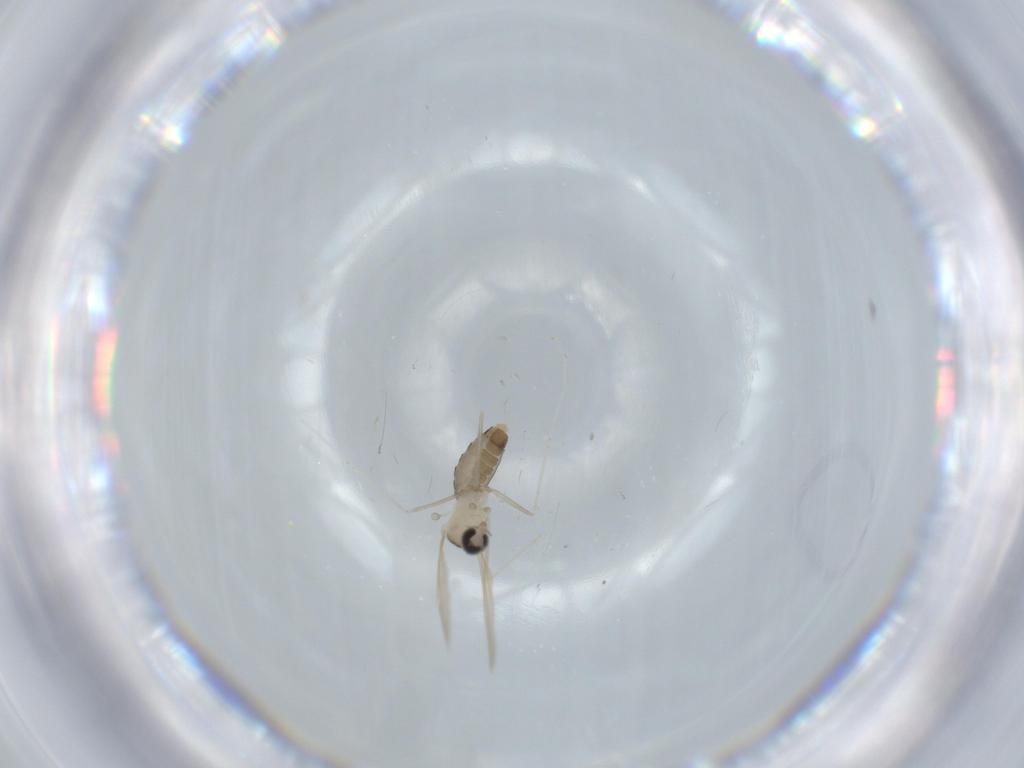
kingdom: Animalia
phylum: Arthropoda
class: Insecta
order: Diptera
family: Cecidomyiidae
